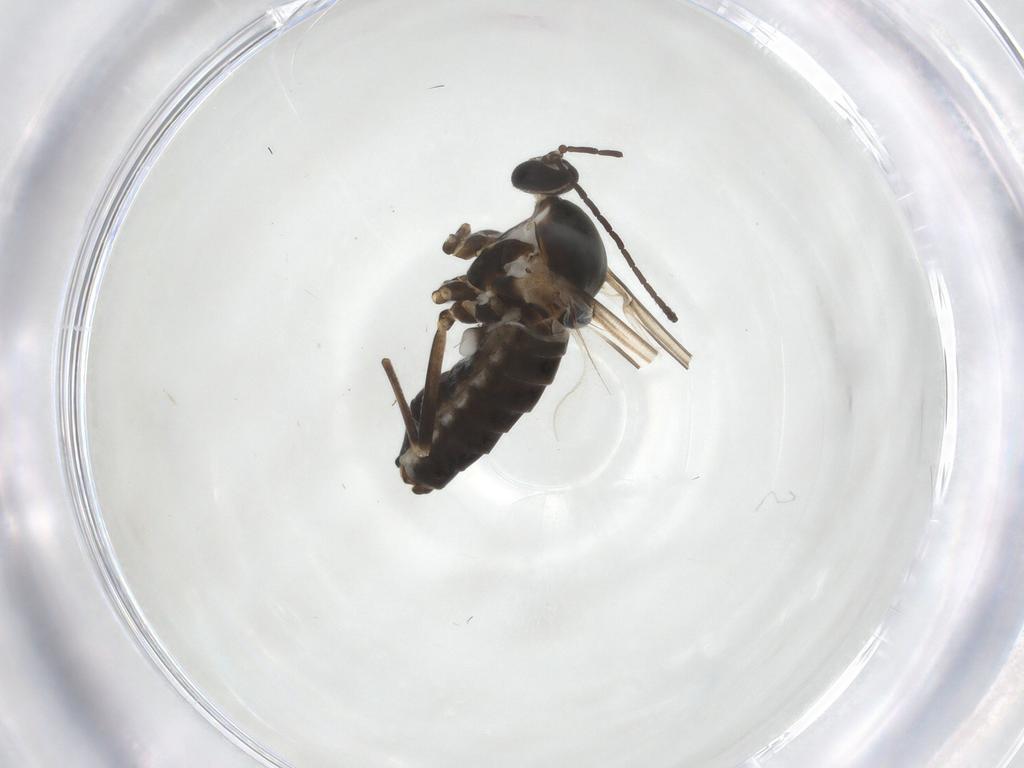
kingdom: Animalia
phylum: Arthropoda
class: Insecta
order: Diptera
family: Cecidomyiidae
